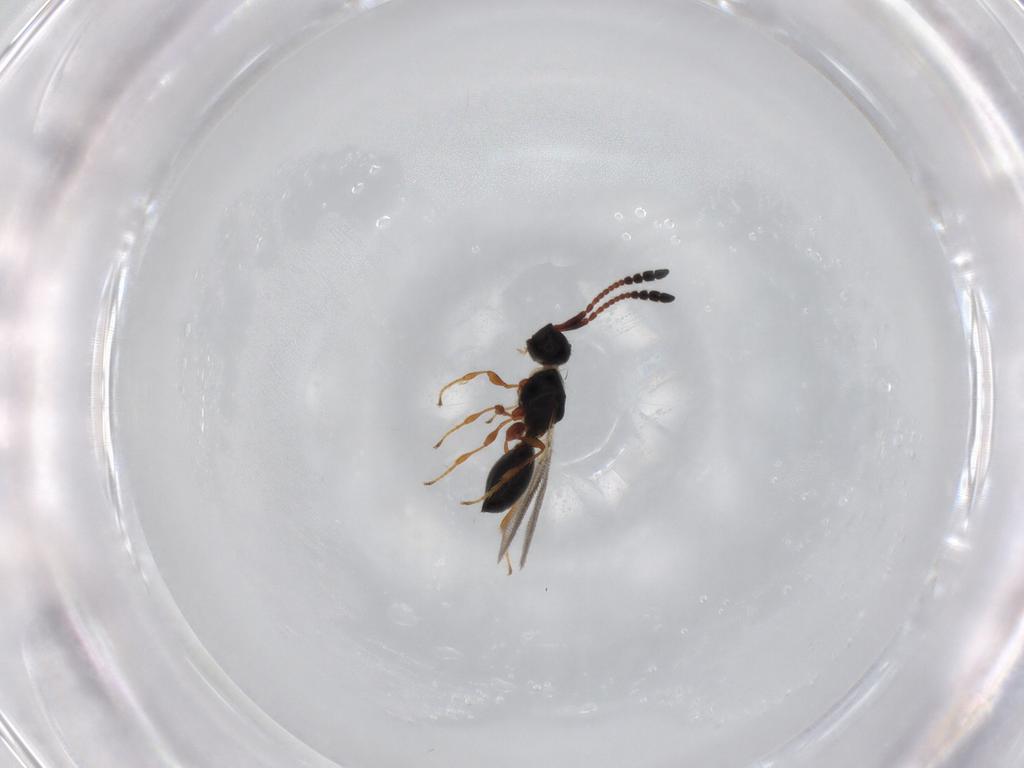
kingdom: Animalia
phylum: Arthropoda
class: Insecta
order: Hymenoptera
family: Diapriidae
